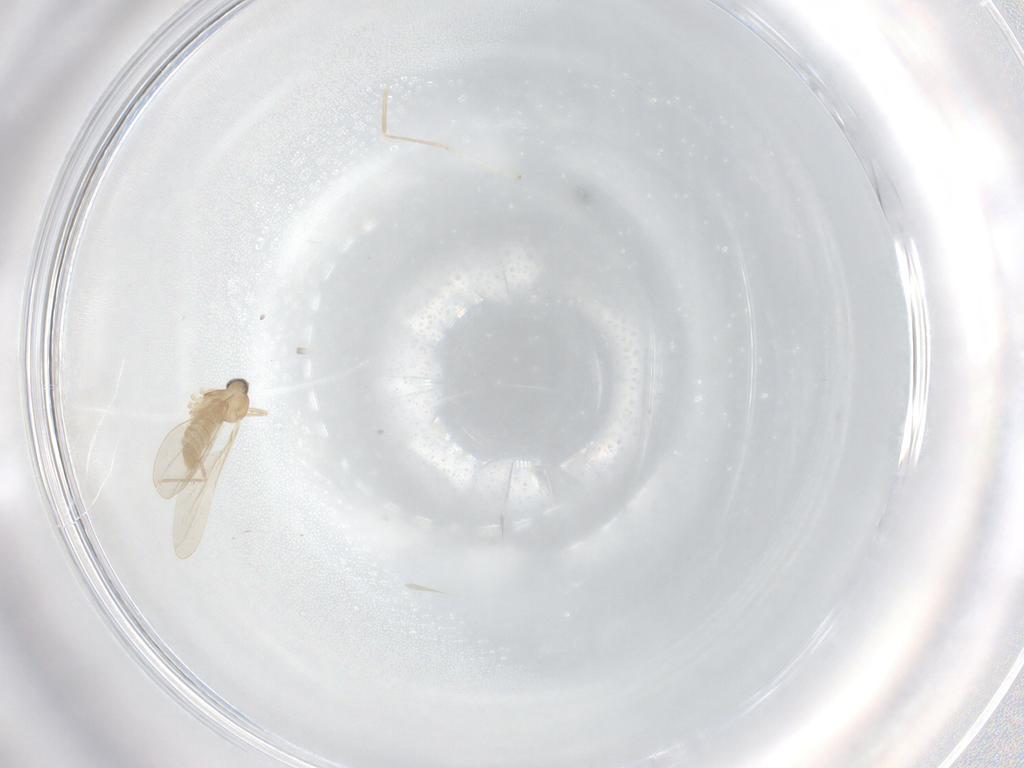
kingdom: Animalia
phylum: Arthropoda
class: Insecta
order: Diptera
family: Cecidomyiidae
